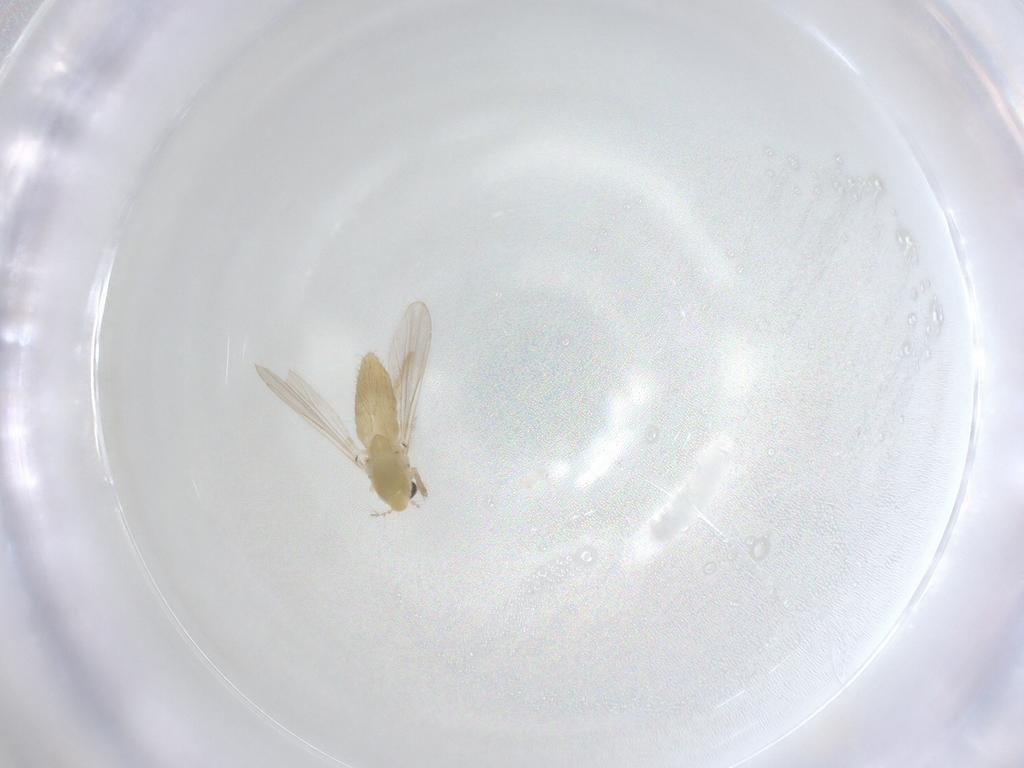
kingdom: Animalia
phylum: Arthropoda
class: Insecta
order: Diptera
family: Chironomidae
